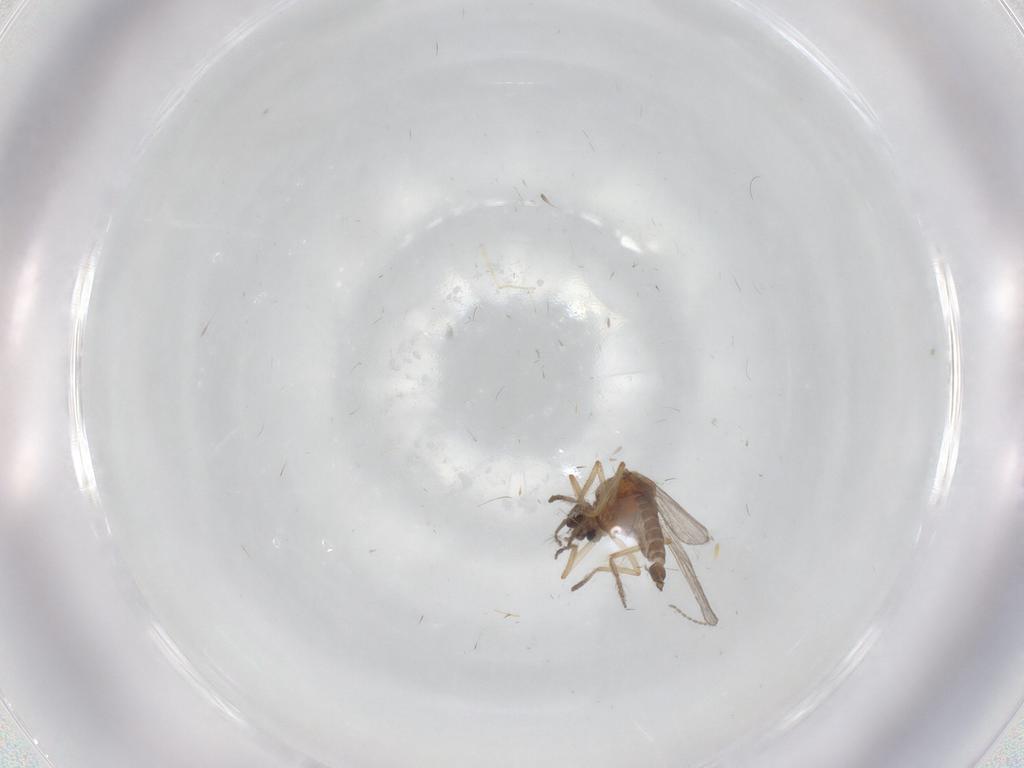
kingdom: Animalia
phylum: Arthropoda
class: Insecta
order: Diptera
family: Ceratopogonidae
